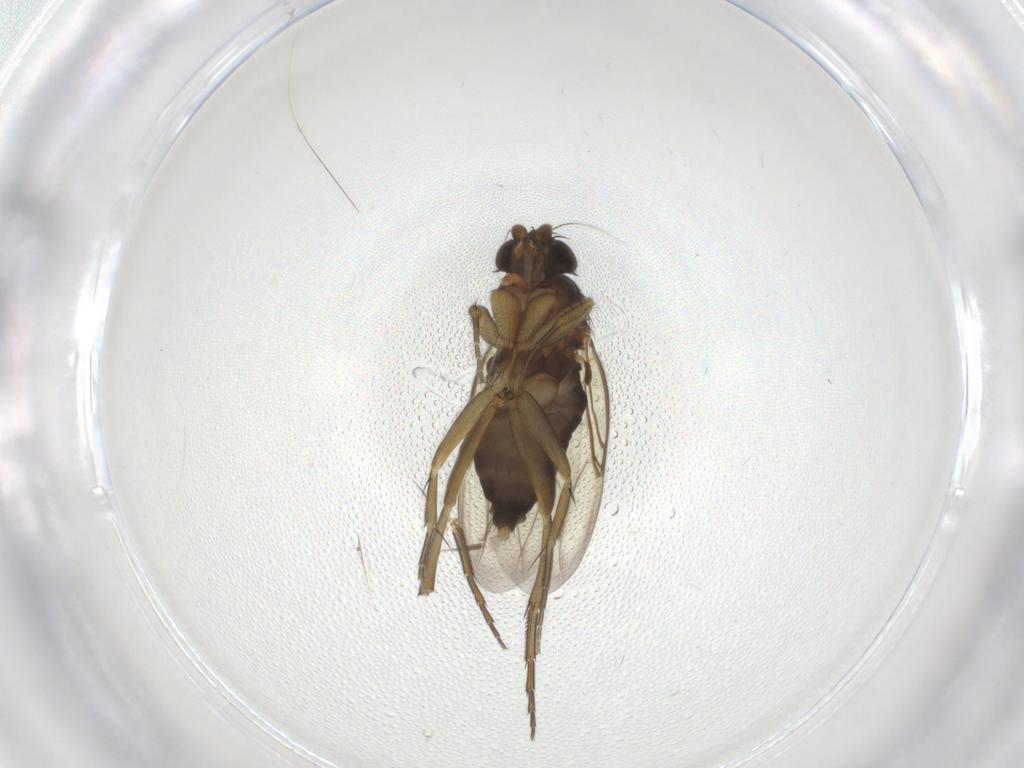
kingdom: Animalia
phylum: Arthropoda
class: Insecta
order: Diptera
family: Phoridae
